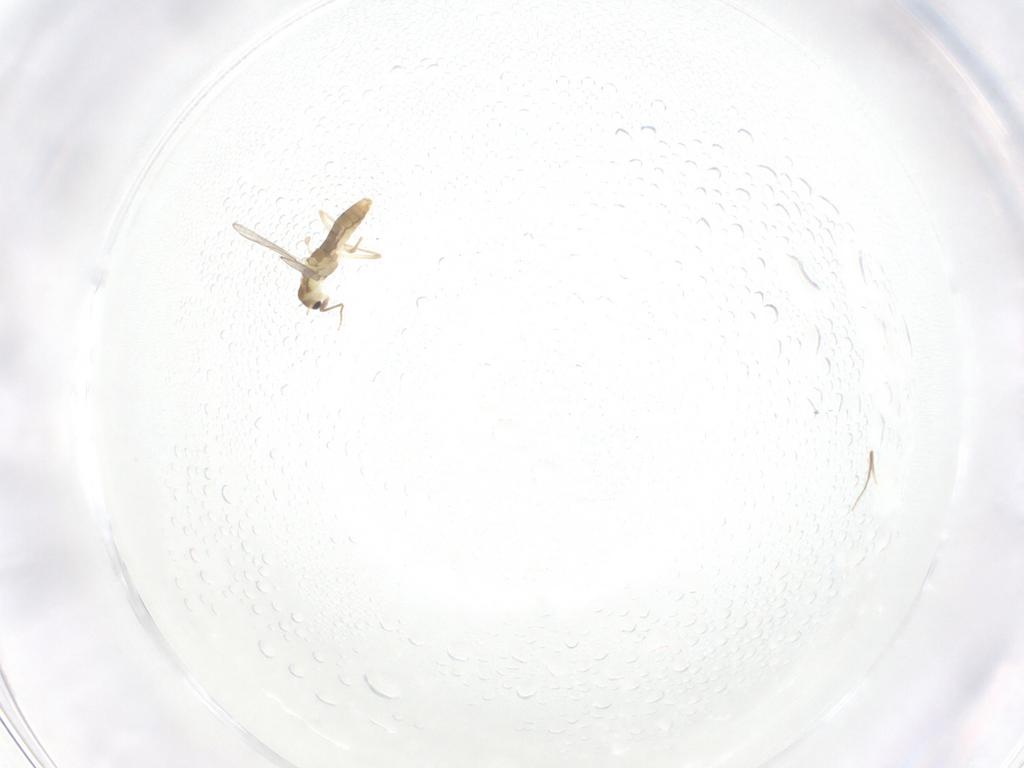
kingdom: Animalia
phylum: Arthropoda
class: Insecta
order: Diptera
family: Chironomidae
